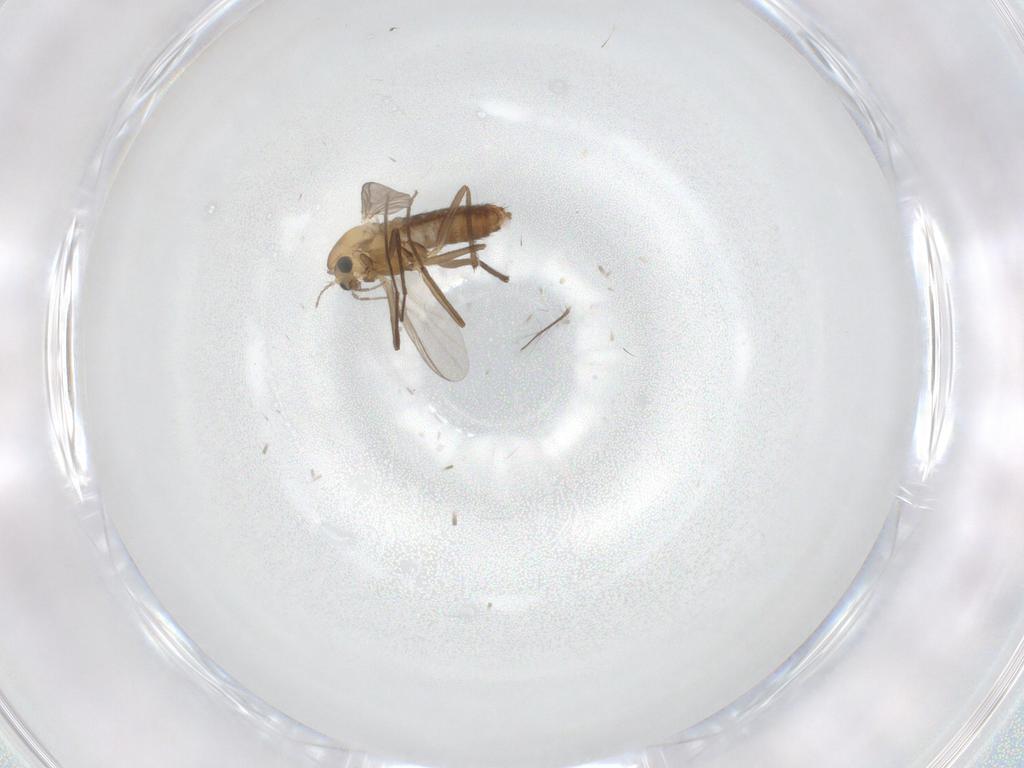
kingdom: Animalia
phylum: Arthropoda
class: Insecta
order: Diptera
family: Chironomidae
